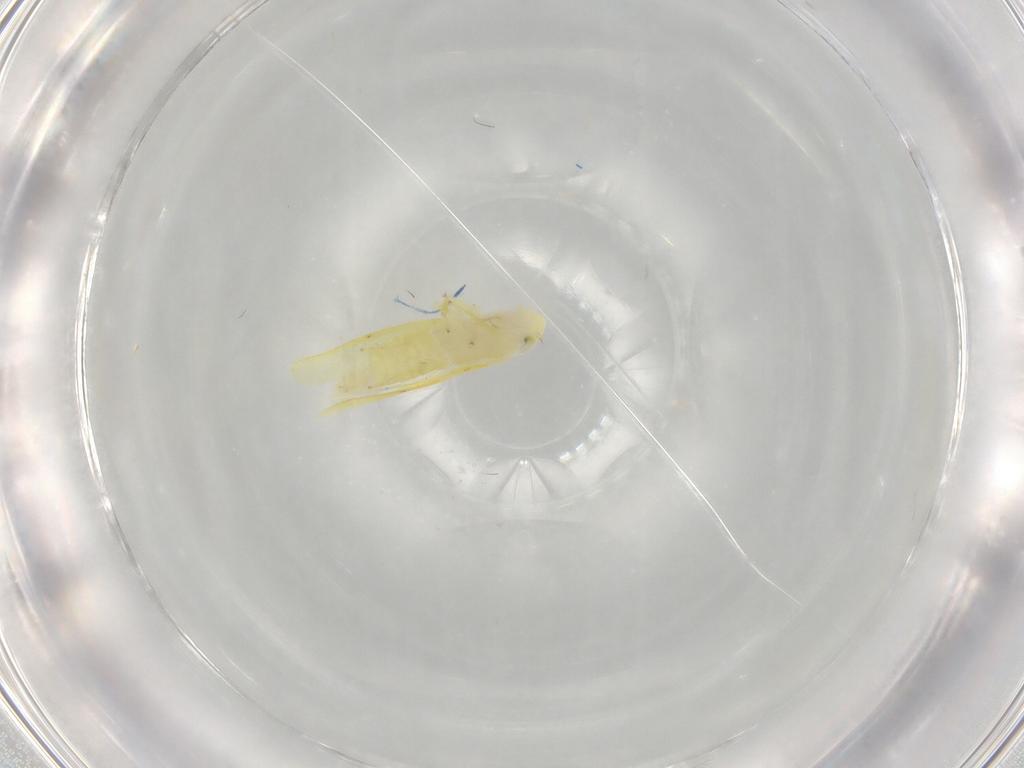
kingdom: Animalia
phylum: Arthropoda
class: Insecta
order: Hemiptera
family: Cicadellidae
